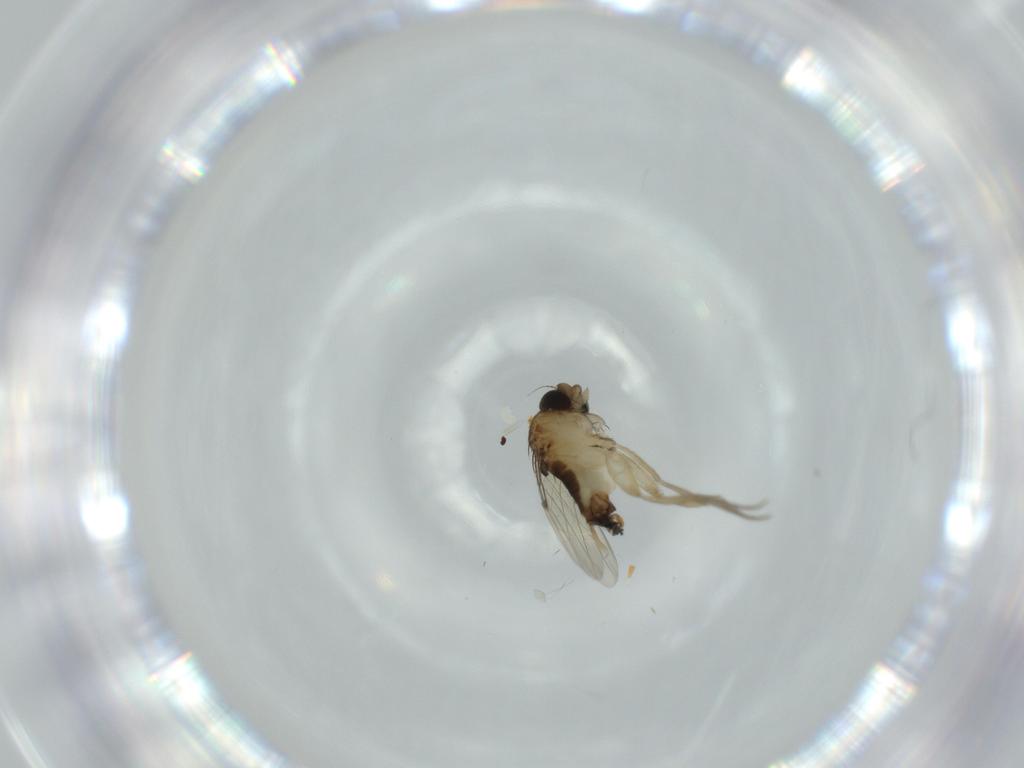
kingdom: Animalia
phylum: Arthropoda
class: Insecta
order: Diptera
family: Phoridae
